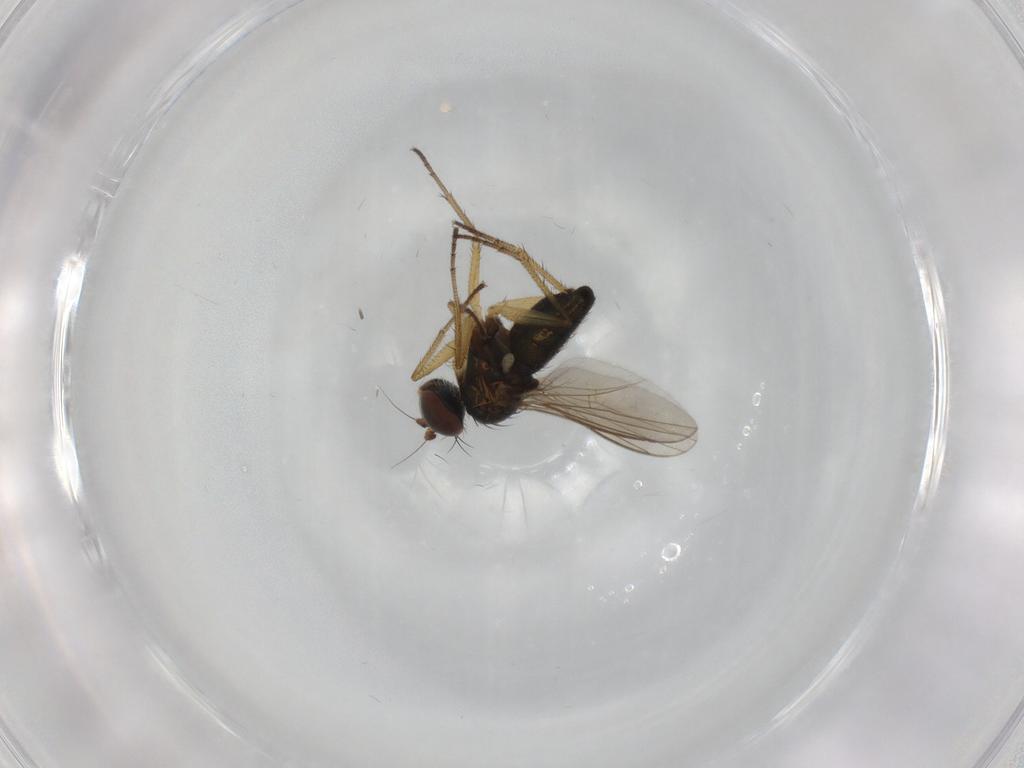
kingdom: Animalia
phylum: Arthropoda
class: Insecta
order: Diptera
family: Dolichopodidae
